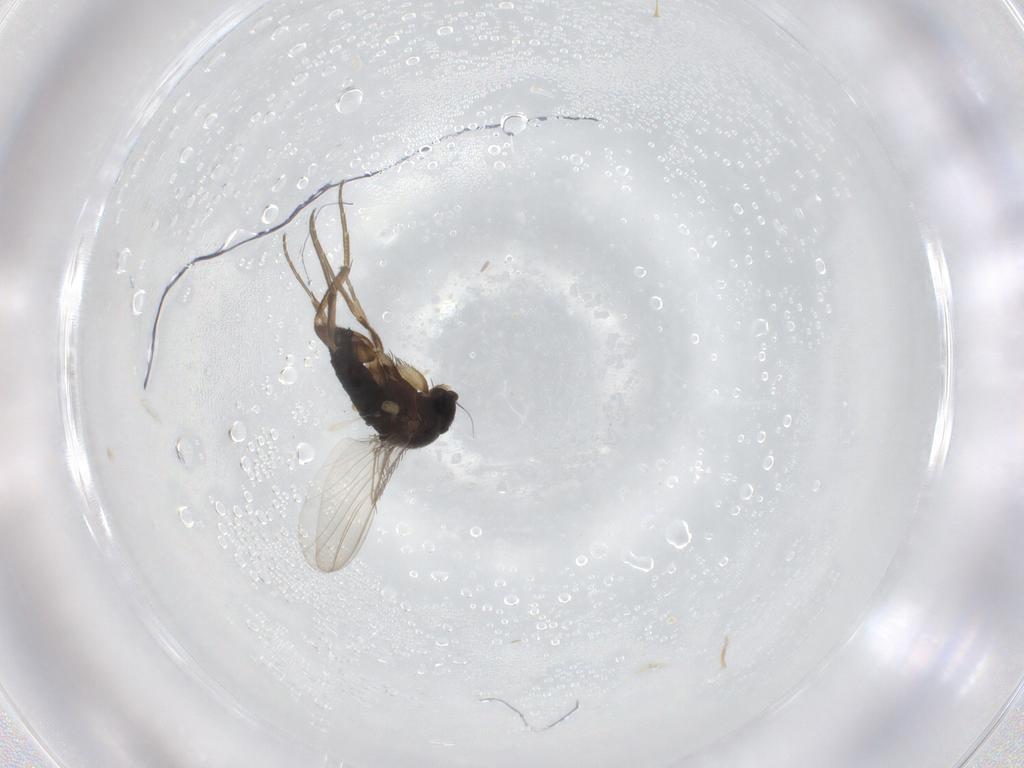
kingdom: Animalia
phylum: Arthropoda
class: Insecta
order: Diptera
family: Phoridae
